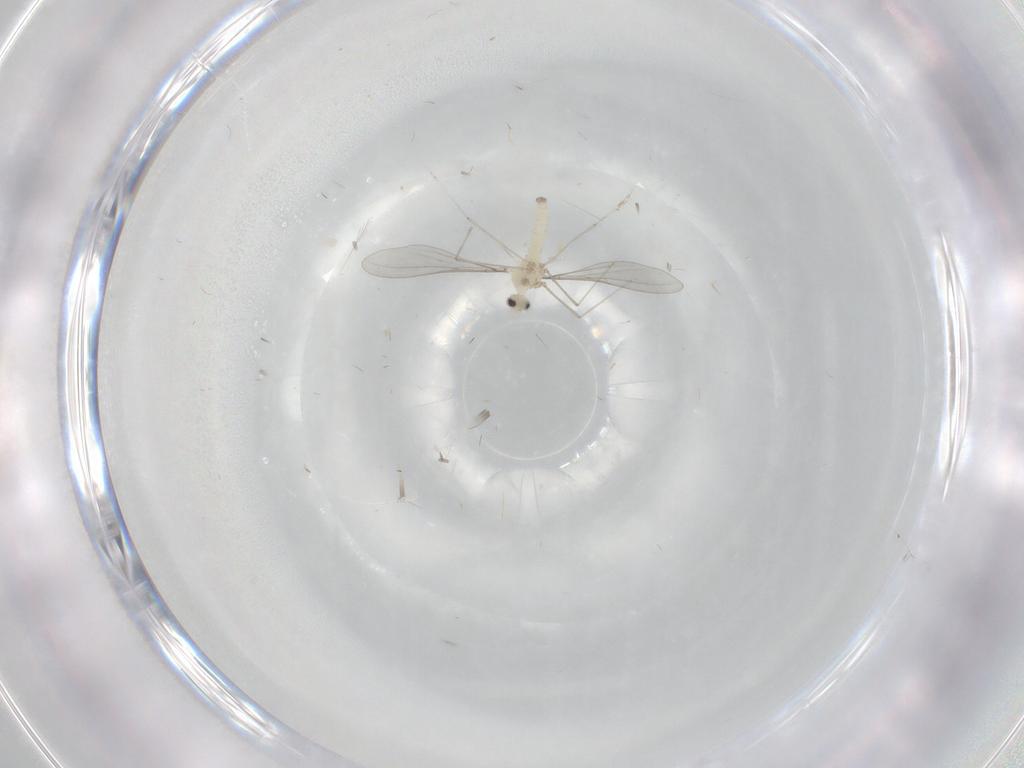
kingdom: Animalia
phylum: Arthropoda
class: Insecta
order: Diptera
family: Cecidomyiidae
